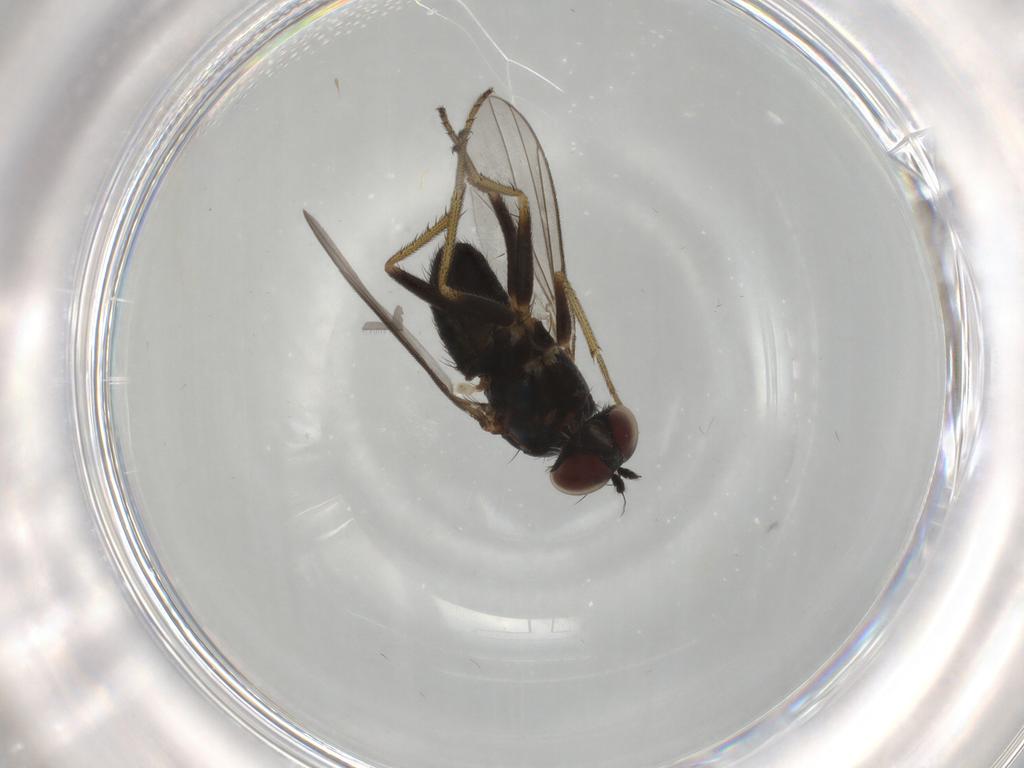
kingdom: Animalia
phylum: Arthropoda
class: Insecta
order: Diptera
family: Dolichopodidae
